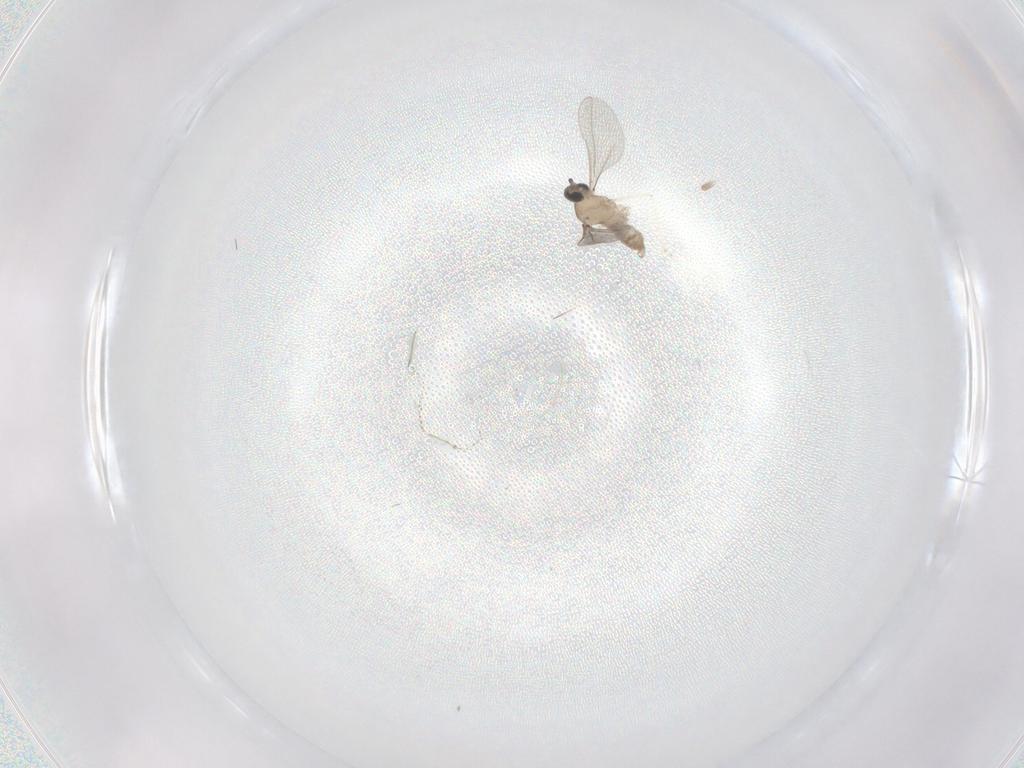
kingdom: Animalia
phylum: Arthropoda
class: Insecta
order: Diptera
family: Cecidomyiidae
